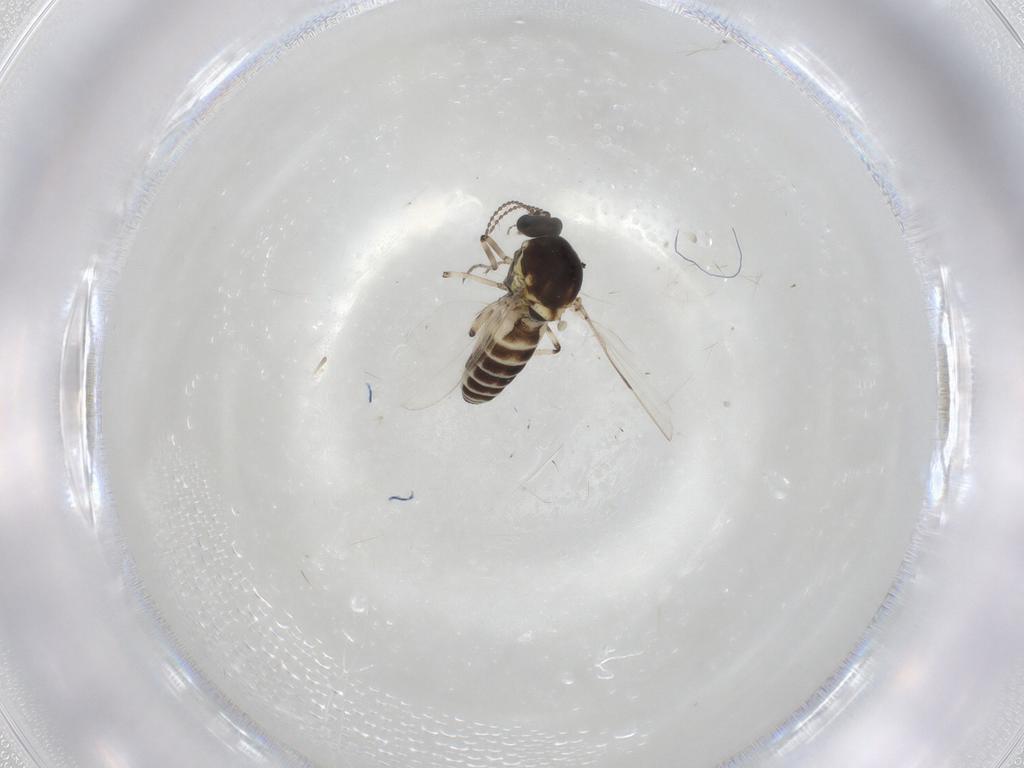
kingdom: Animalia
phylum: Arthropoda
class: Insecta
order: Diptera
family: Ceratopogonidae
